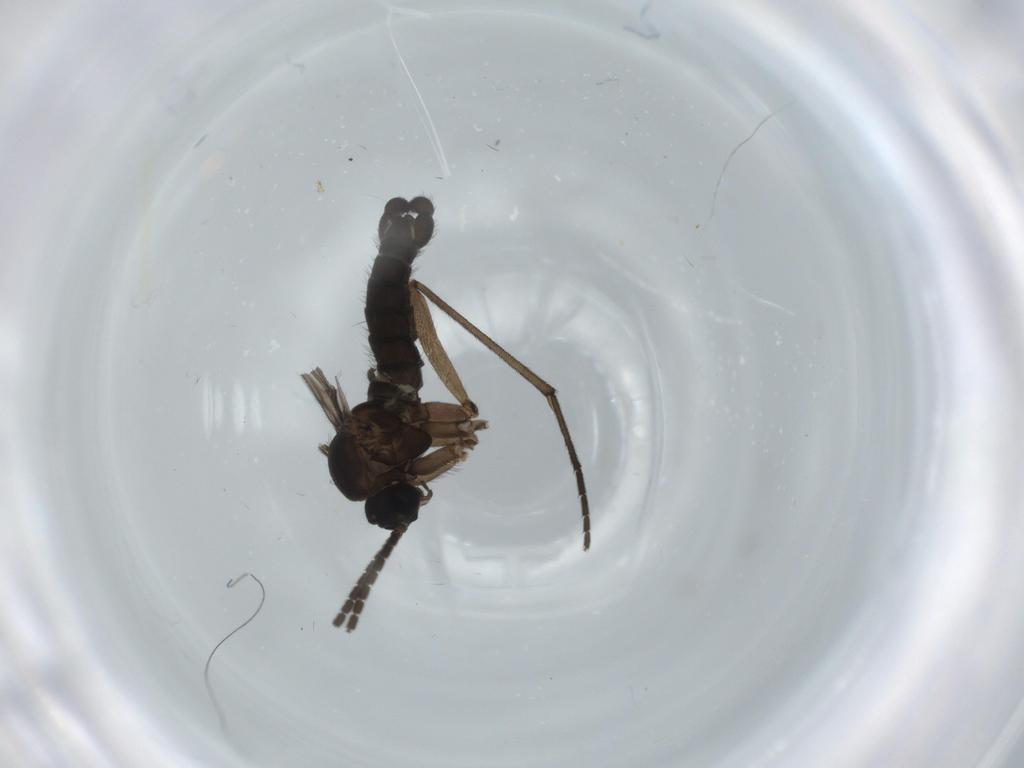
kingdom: Animalia
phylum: Arthropoda
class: Insecta
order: Diptera
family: Sciaridae
